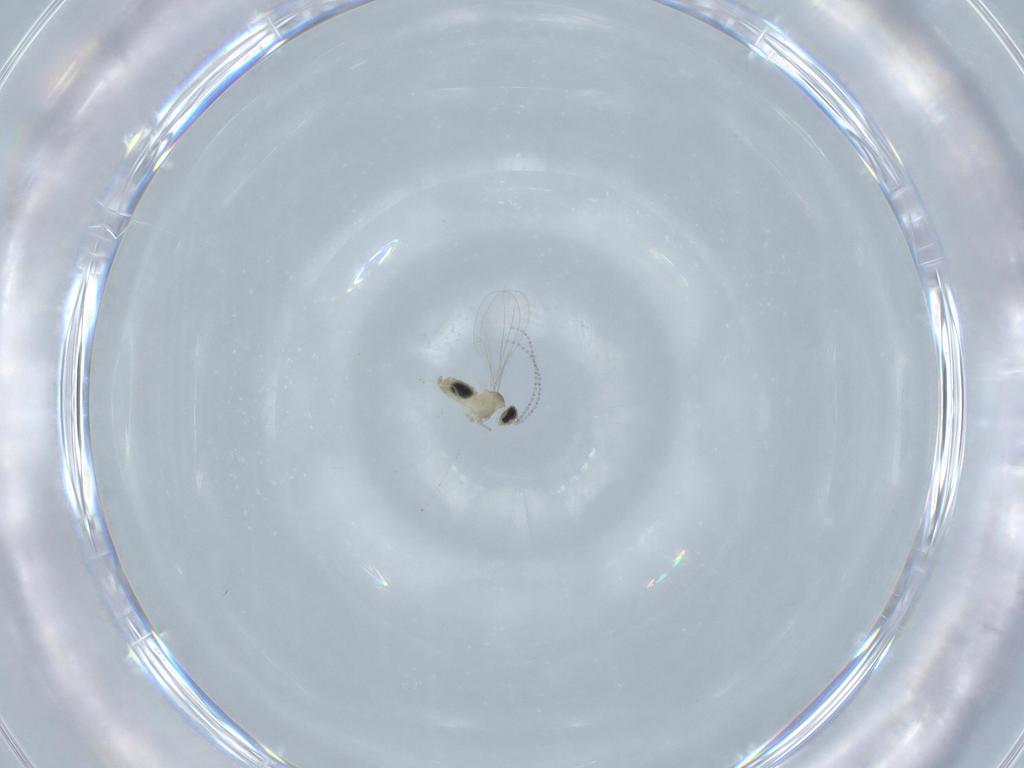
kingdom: Animalia
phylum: Arthropoda
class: Insecta
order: Diptera
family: Cecidomyiidae
